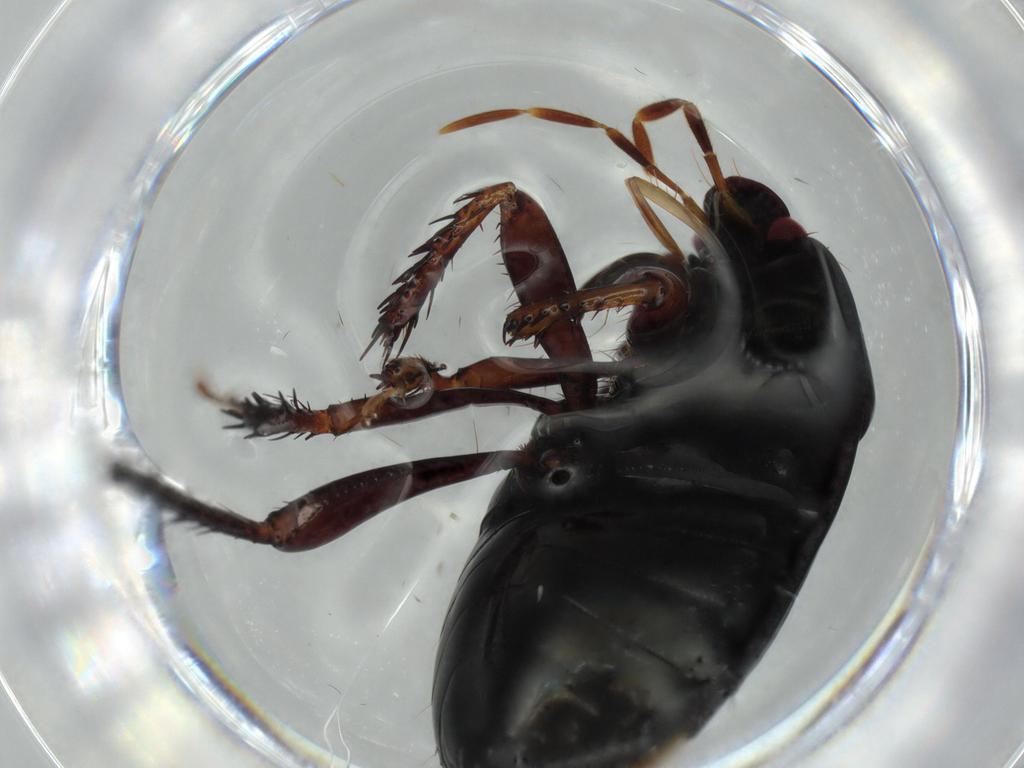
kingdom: Animalia
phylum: Arthropoda
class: Insecta
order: Hemiptera
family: Cydnidae
